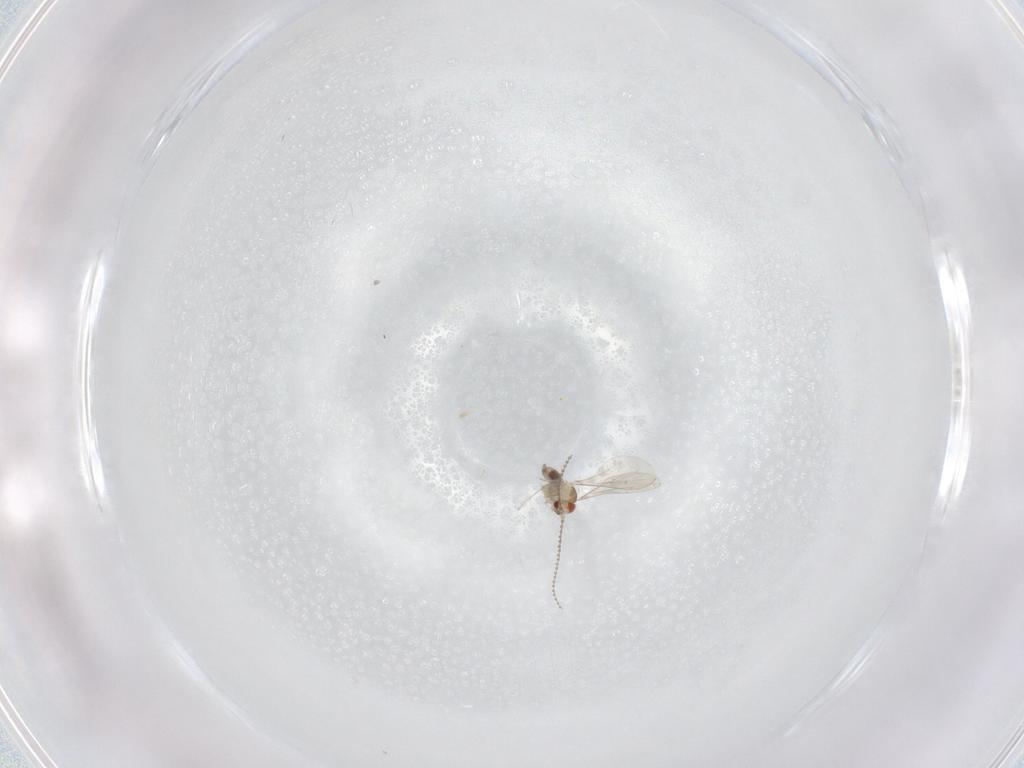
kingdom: Animalia
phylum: Arthropoda
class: Insecta
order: Diptera
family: Cecidomyiidae
